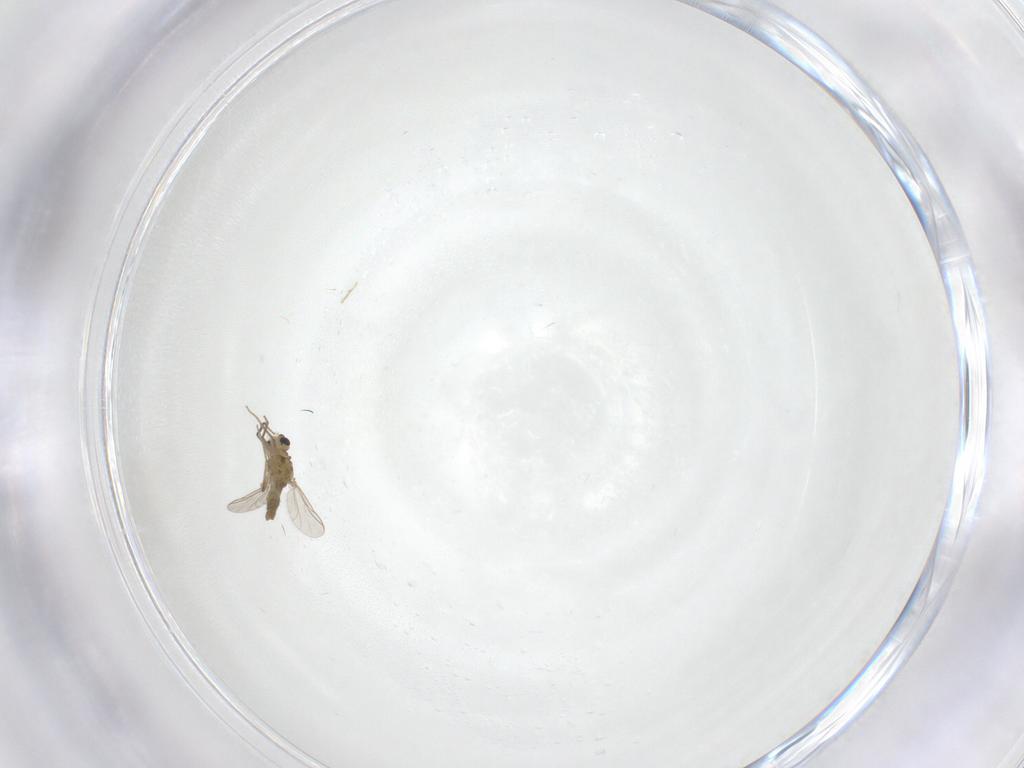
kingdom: Animalia
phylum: Arthropoda
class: Insecta
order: Diptera
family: Chironomidae
